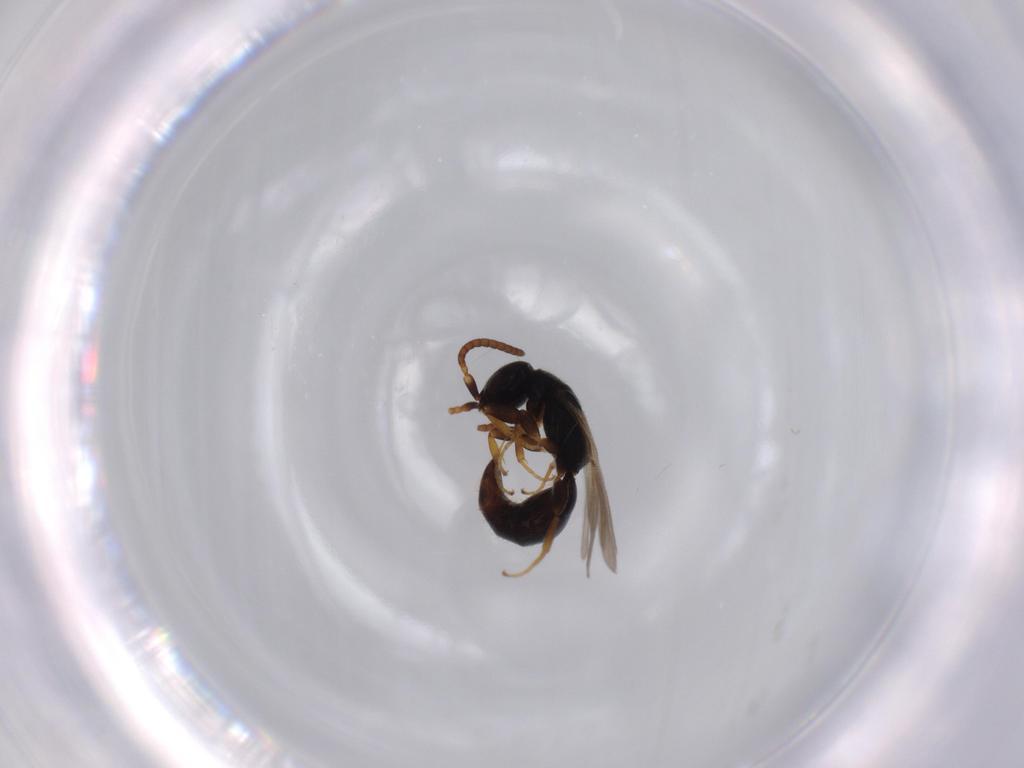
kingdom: Animalia
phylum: Arthropoda
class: Insecta
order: Hymenoptera
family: Bethylidae
